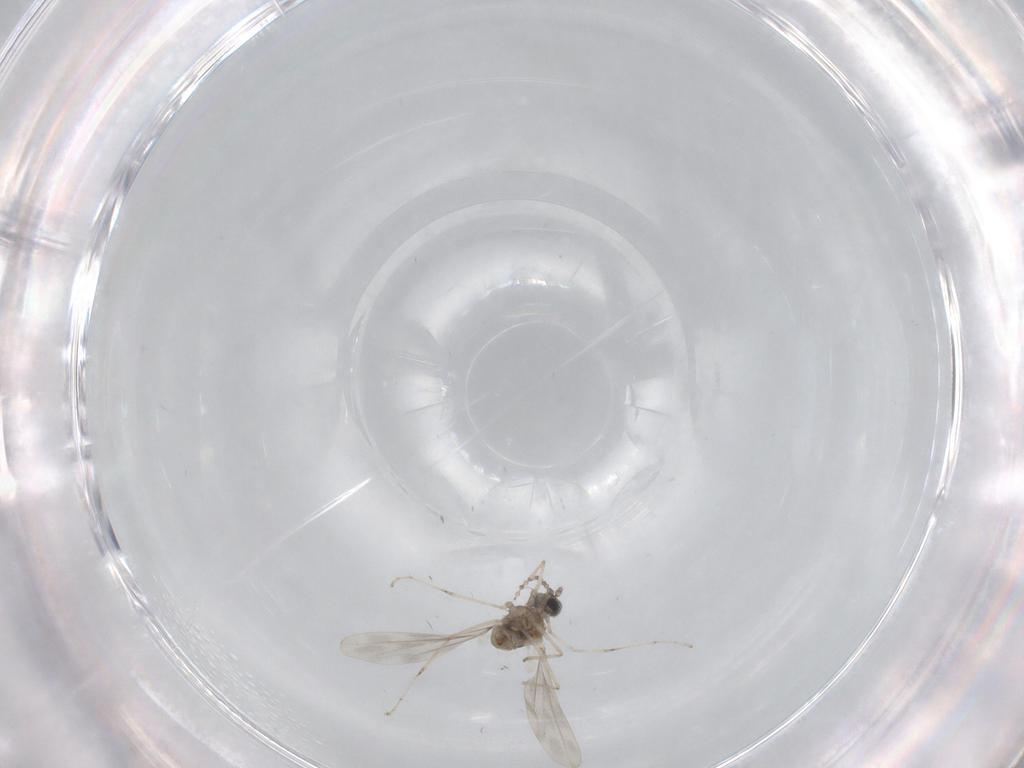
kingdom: Animalia
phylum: Arthropoda
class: Insecta
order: Diptera
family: Cecidomyiidae
